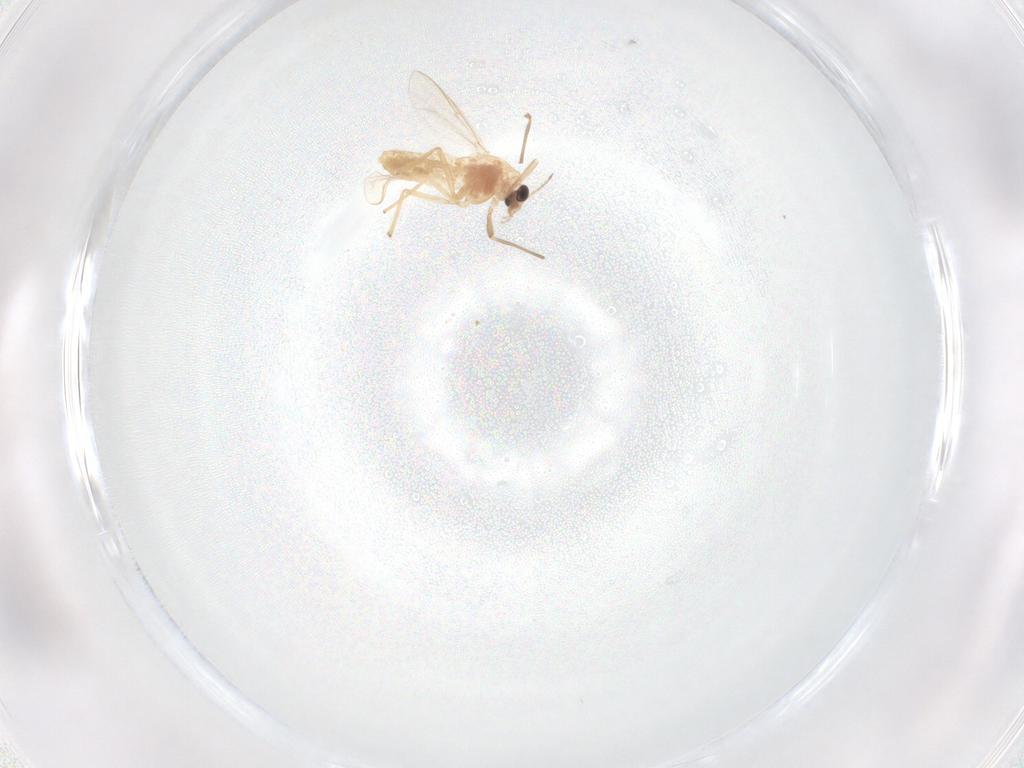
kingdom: Animalia
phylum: Arthropoda
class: Insecta
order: Diptera
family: Chironomidae
